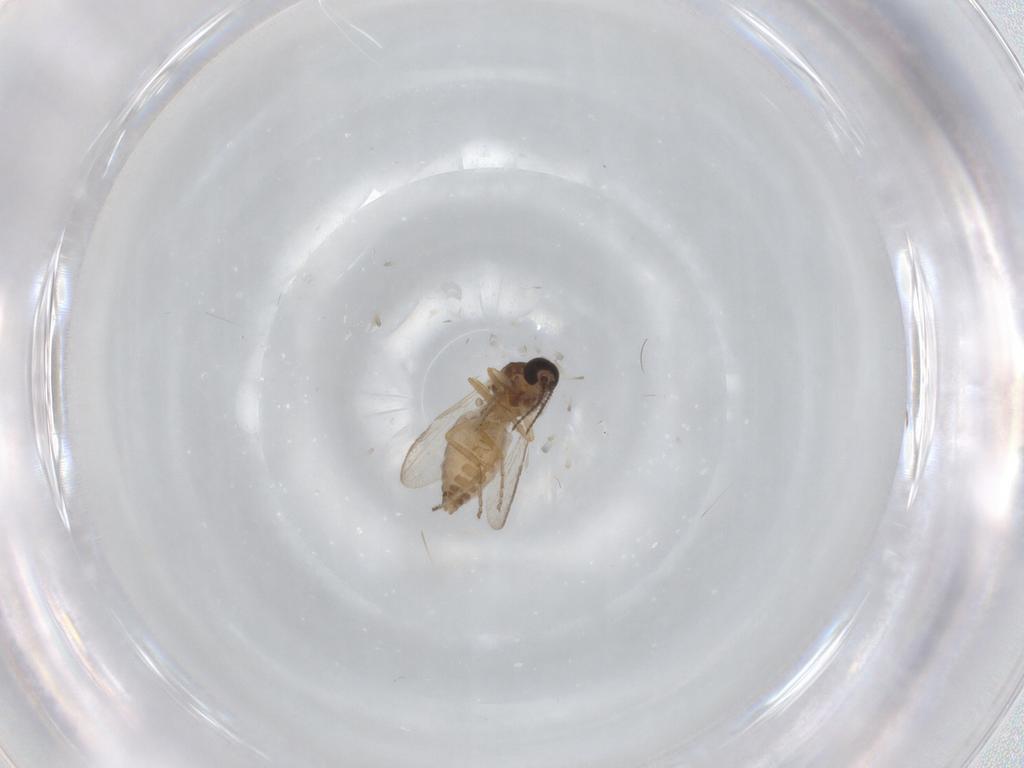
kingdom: Animalia
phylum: Arthropoda
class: Insecta
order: Diptera
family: Ceratopogonidae
